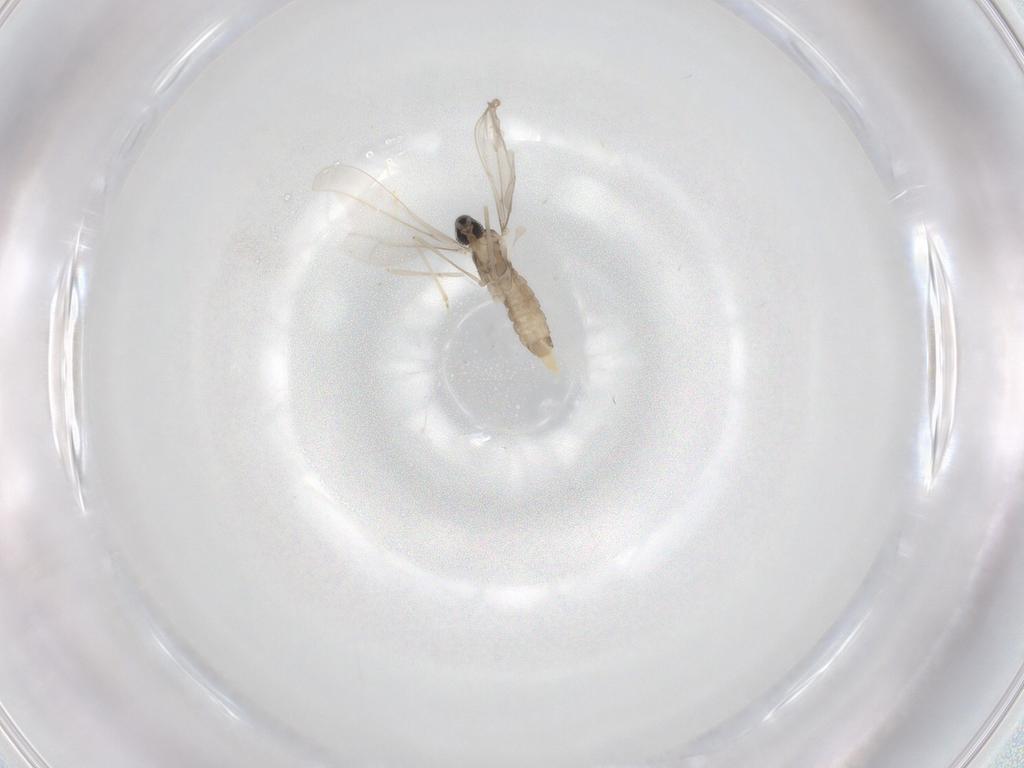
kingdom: Animalia
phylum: Arthropoda
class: Insecta
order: Diptera
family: Cecidomyiidae
